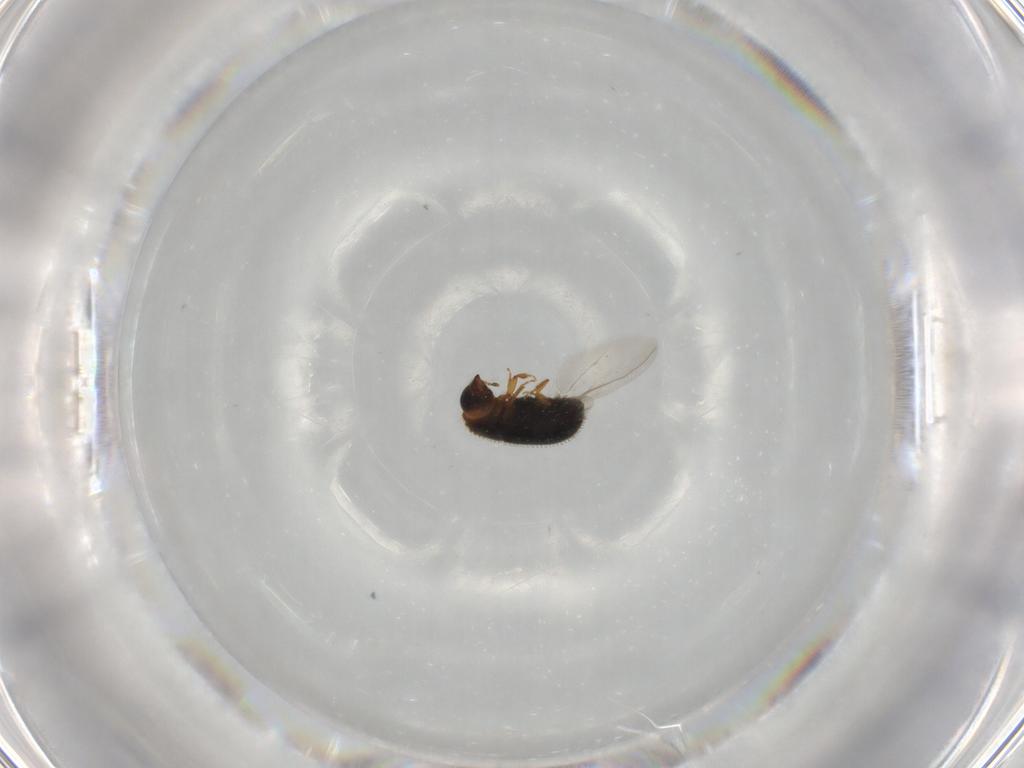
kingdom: Animalia
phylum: Arthropoda
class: Insecta
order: Coleoptera
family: Curculionidae
